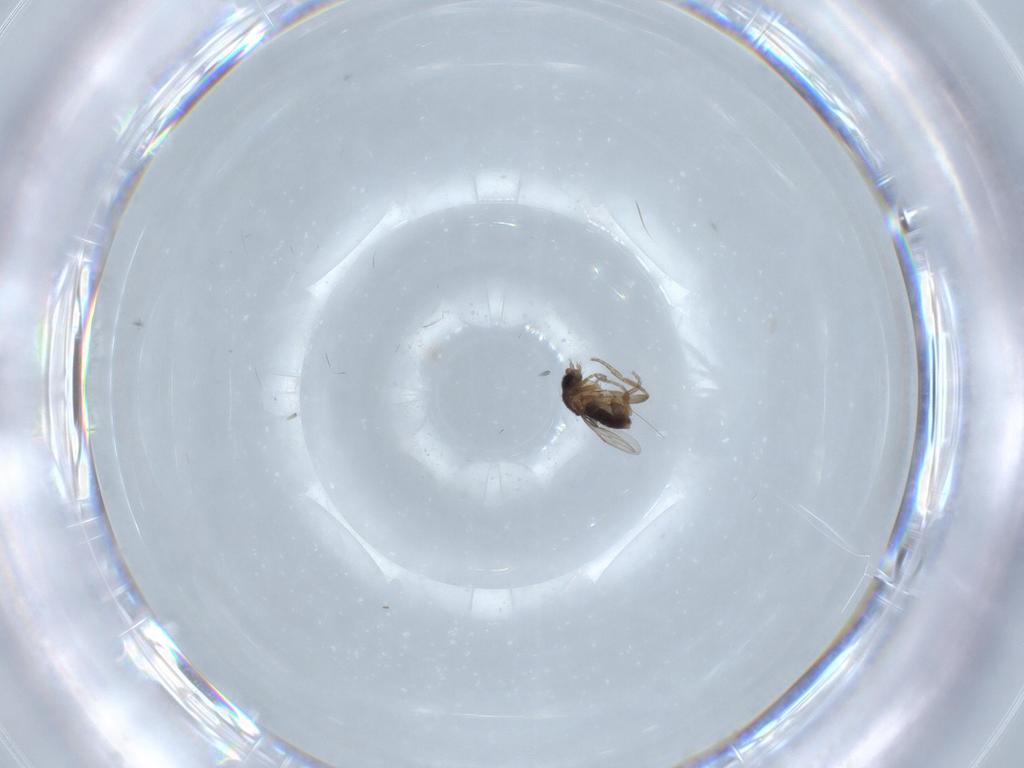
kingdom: Animalia
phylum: Arthropoda
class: Insecta
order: Diptera
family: Phoridae
